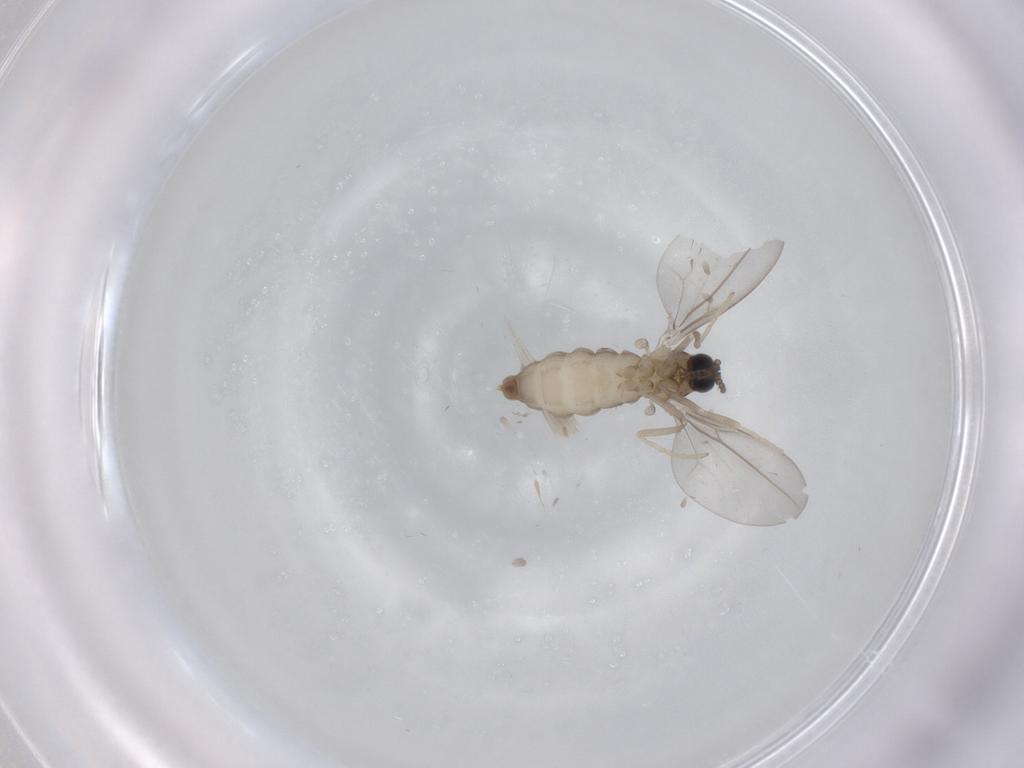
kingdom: Animalia
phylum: Arthropoda
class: Insecta
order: Diptera
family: Cecidomyiidae
